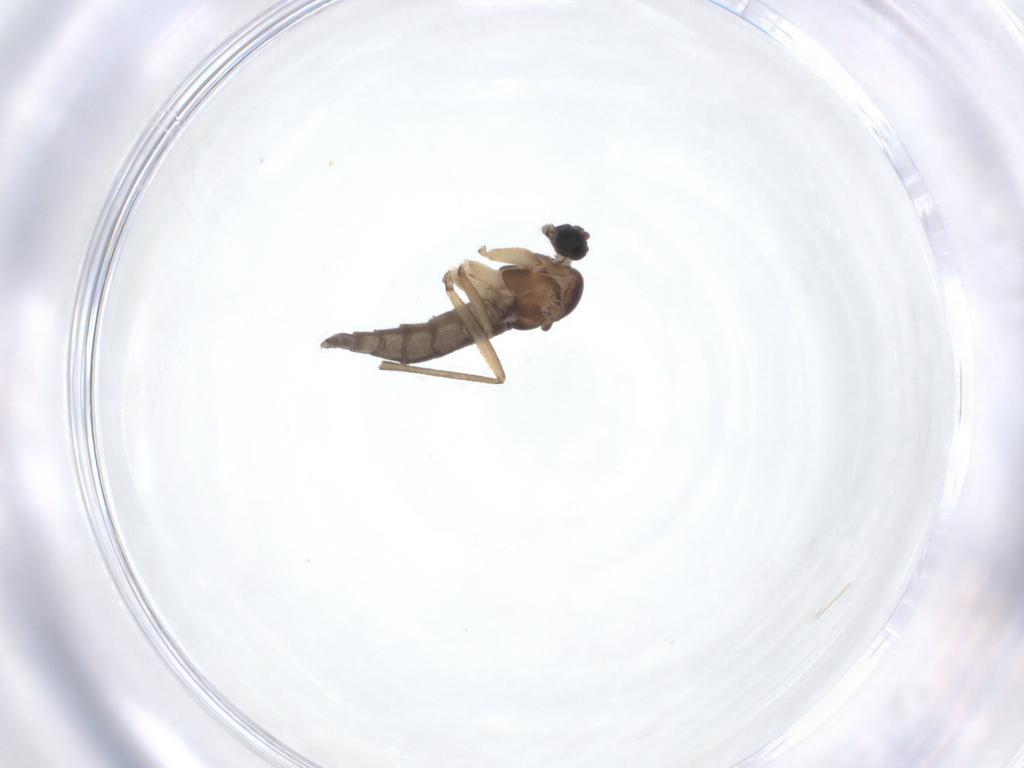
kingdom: Animalia
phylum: Arthropoda
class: Insecta
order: Diptera
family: Sciaridae
